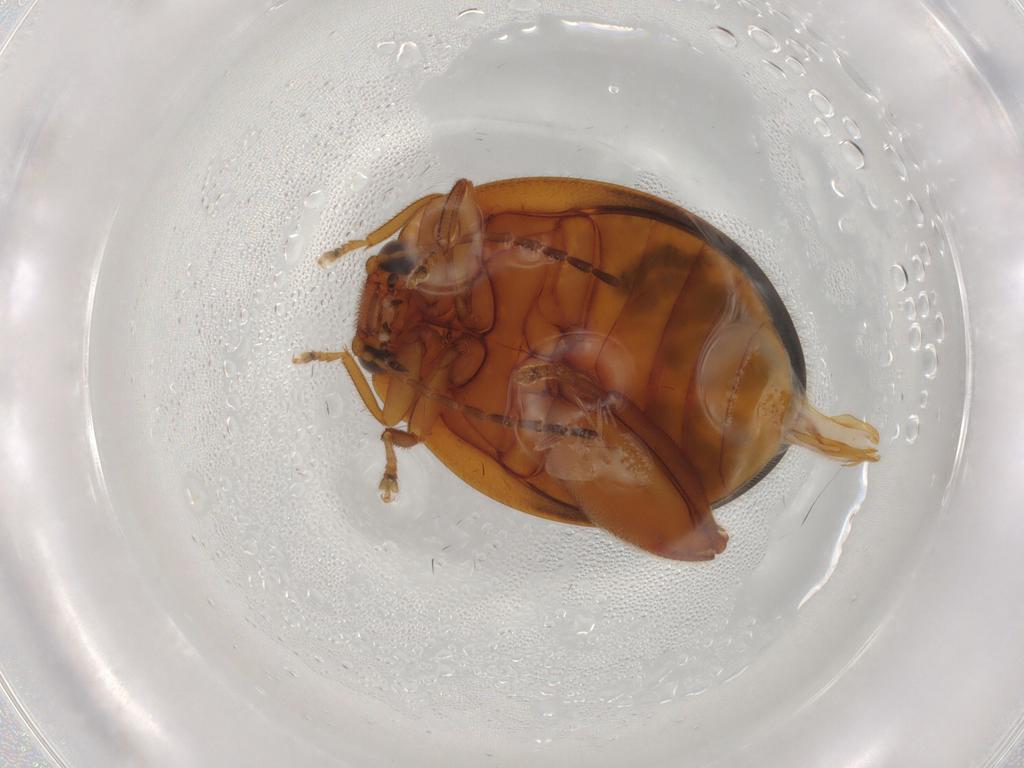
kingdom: Animalia
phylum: Arthropoda
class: Insecta
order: Coleoptera
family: Scirtidae
